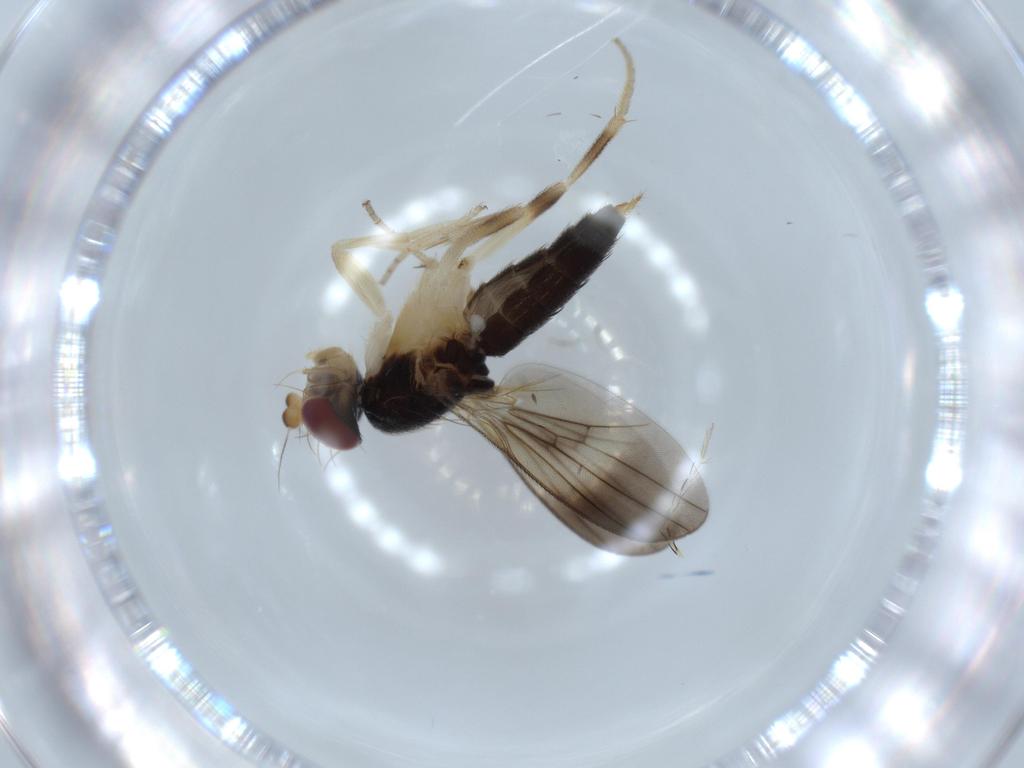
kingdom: Animalia
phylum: Arthropoda
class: Insecta
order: Diptera
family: Clusiidae
